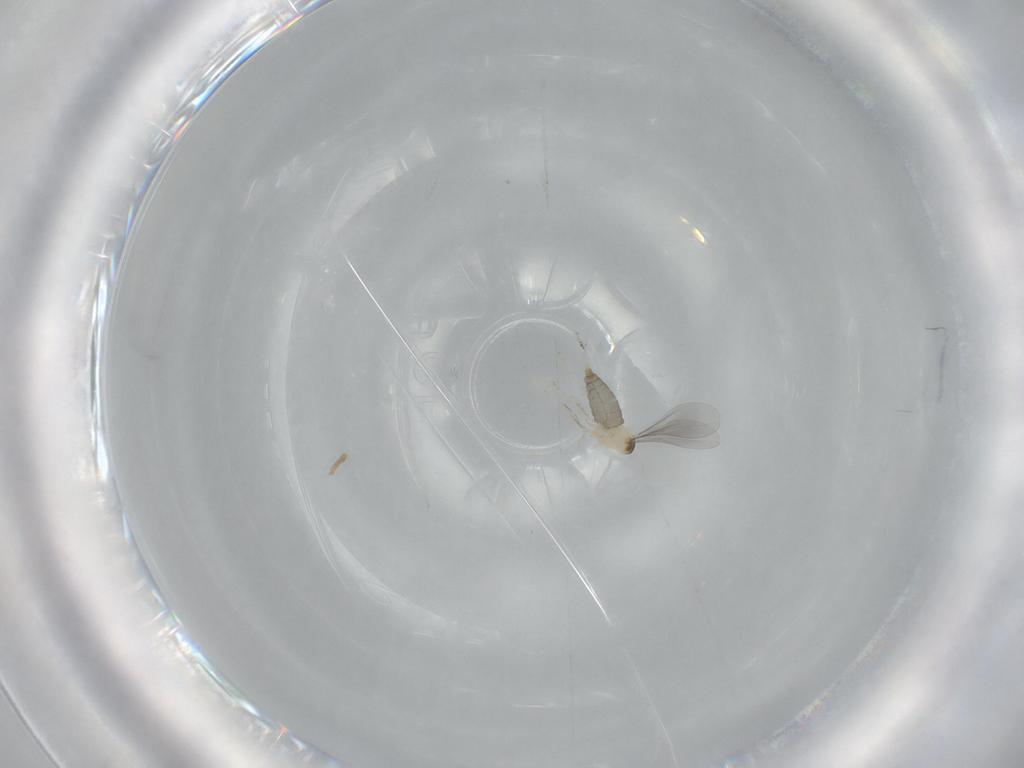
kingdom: Animalia
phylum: Arthropoda
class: Insecta
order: Diptera
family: Cecidomyiidae
